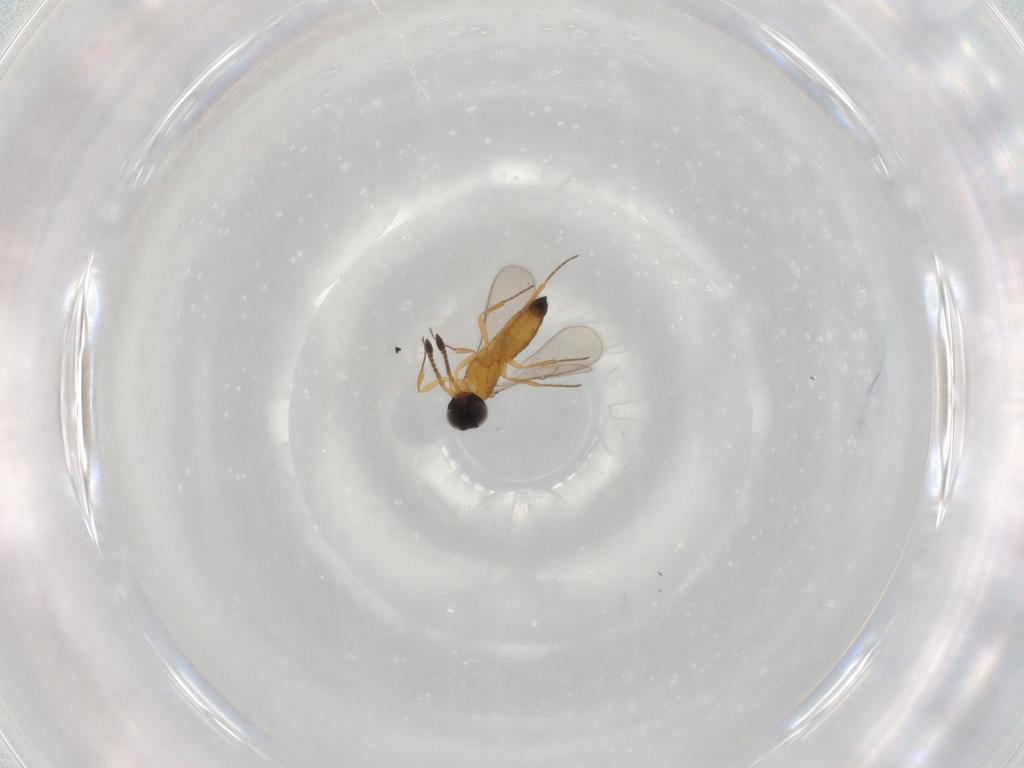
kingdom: Animalia
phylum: Arthropoda
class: Insecta
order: Hymenoptera
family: Scelionidae
